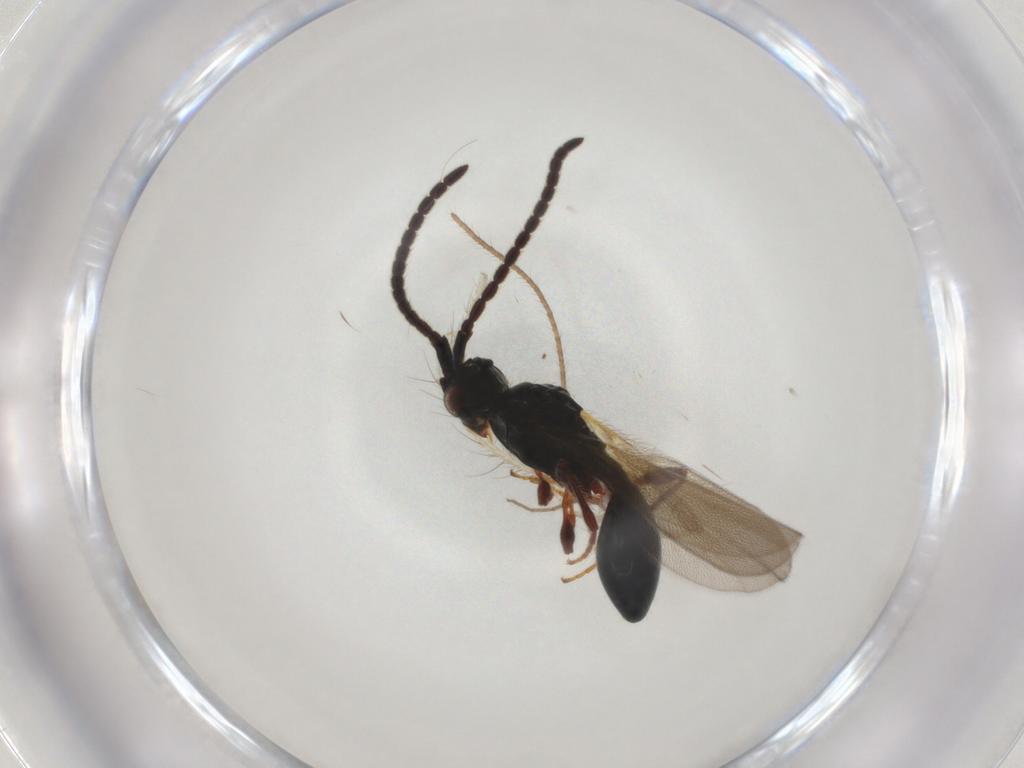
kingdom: Animalia
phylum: Arthropoda
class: Insecta
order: Hymenoptera
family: Diapriidae
